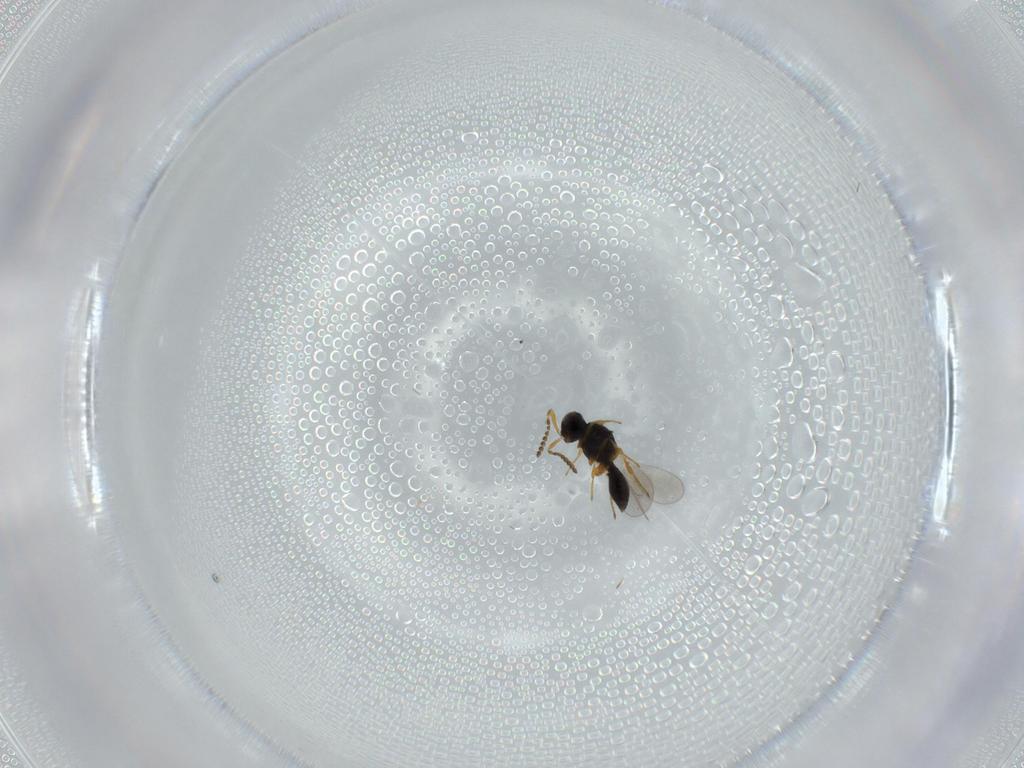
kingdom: Animalia
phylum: Arthropoda
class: Insecta
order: Hymenoptera
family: Platygastridae
